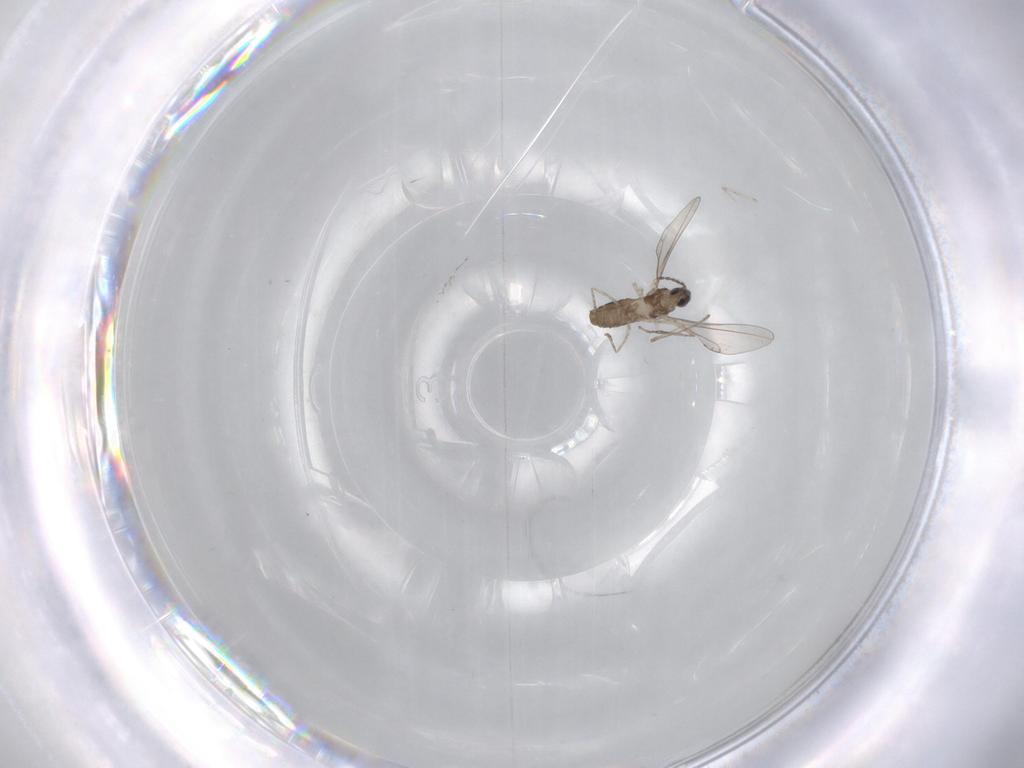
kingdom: Animalia
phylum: Arthropoda
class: Insecta
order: Diptera
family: Cecidomyiidae
